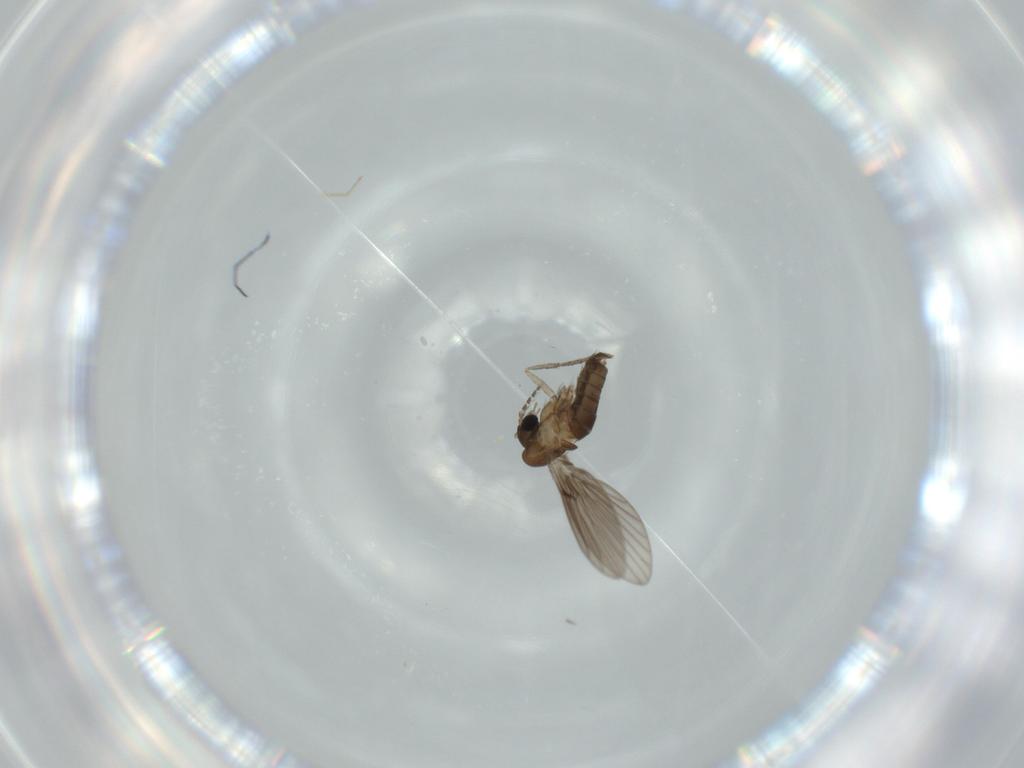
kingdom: Animalia
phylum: Arthropoda
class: Insecta
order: Diptera
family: Psychodidae
